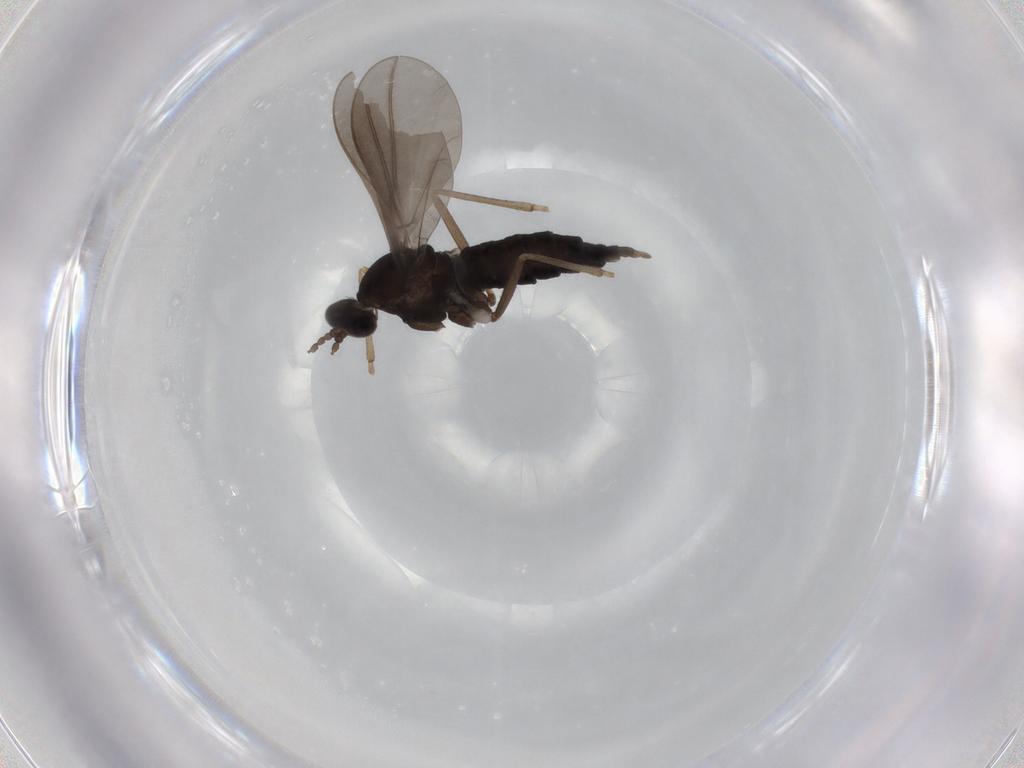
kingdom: Animalia
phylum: Arthropoda
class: Insecta
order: Diptera
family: Cecidomyiidae
